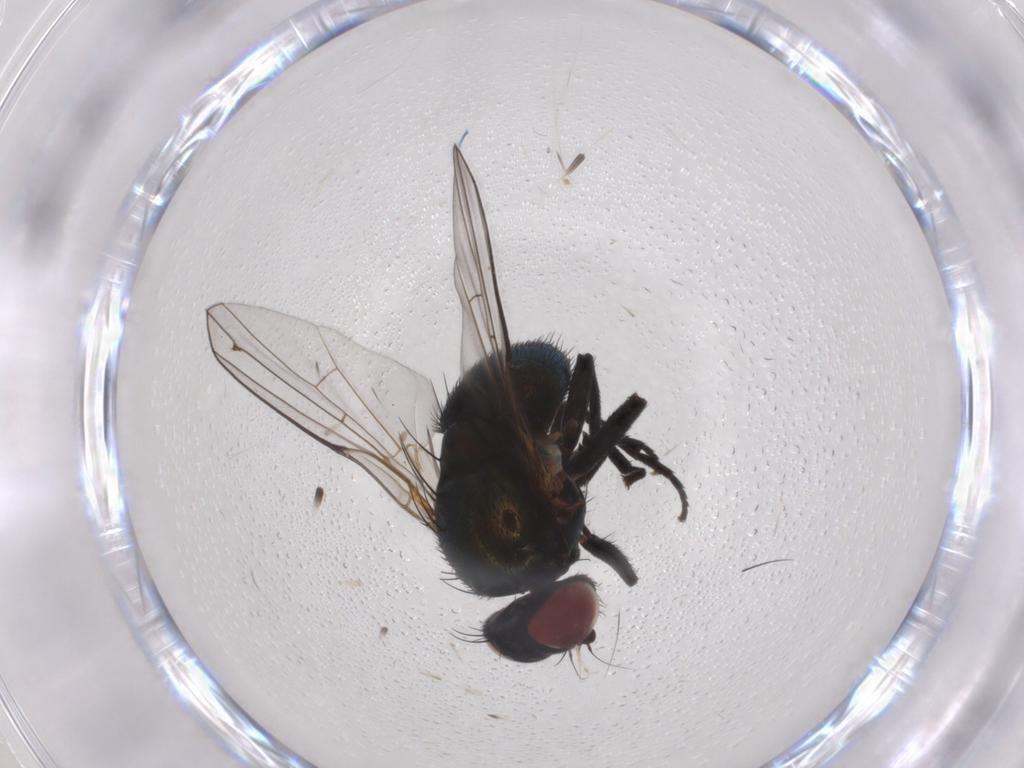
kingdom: Animalia
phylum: Arthropoda
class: Insecta
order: Diptera
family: Agromyzidae
